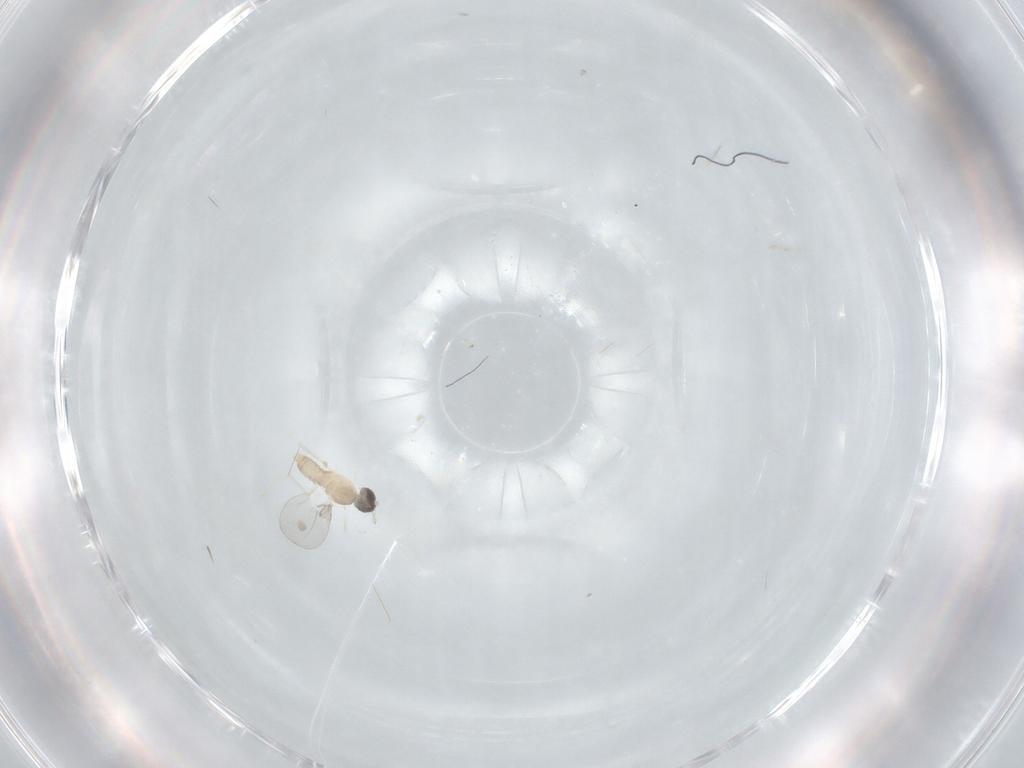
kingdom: Animalia
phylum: Arthropoda
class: Insecta
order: Diptera
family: Cecidomyiidae
